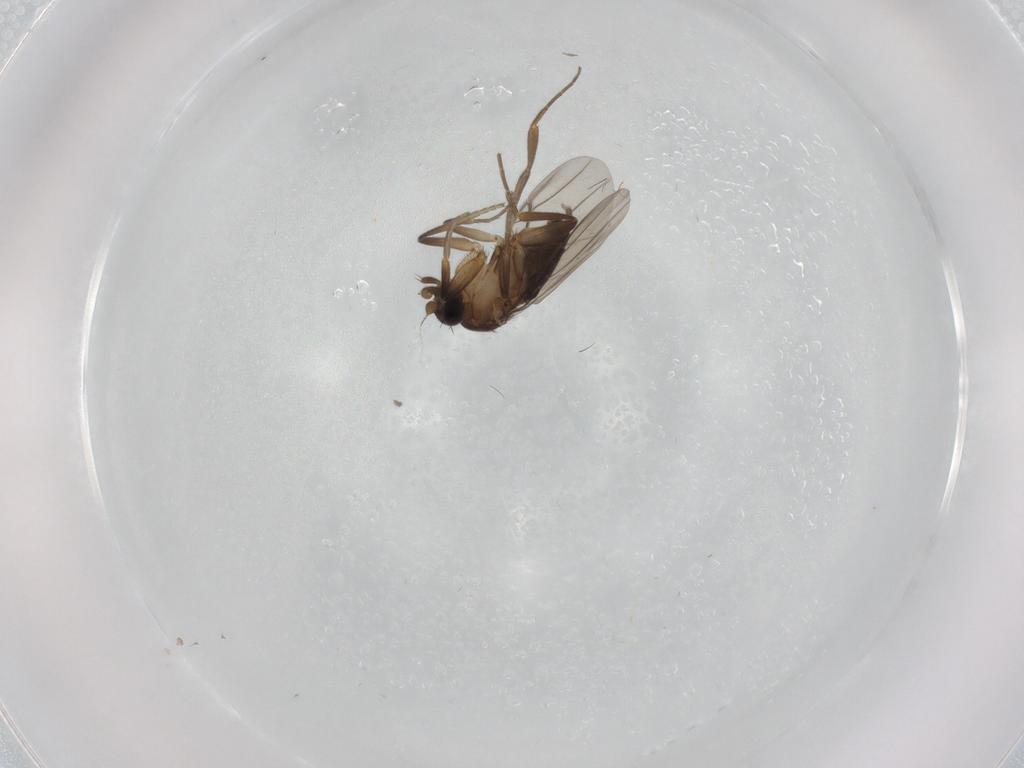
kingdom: Animalia
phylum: Arthropoda
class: Insecta
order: Diptera
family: Phoridae
